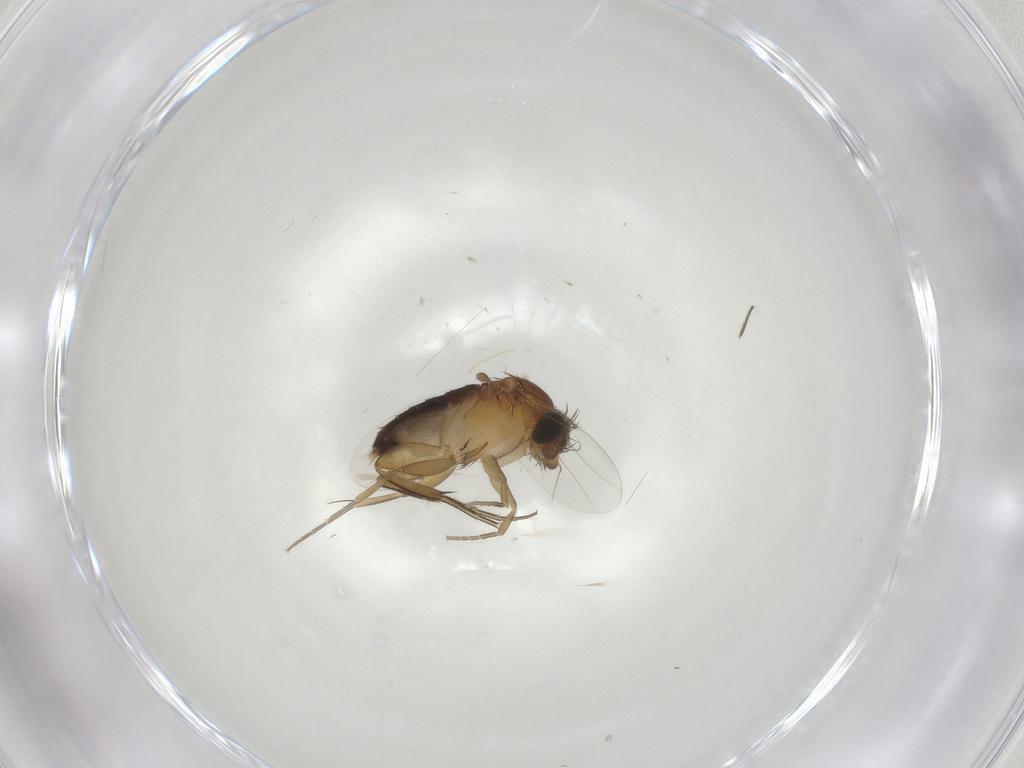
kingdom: Animalia
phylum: Arthropoda
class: Insecta
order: Diptera
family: Phoridae
